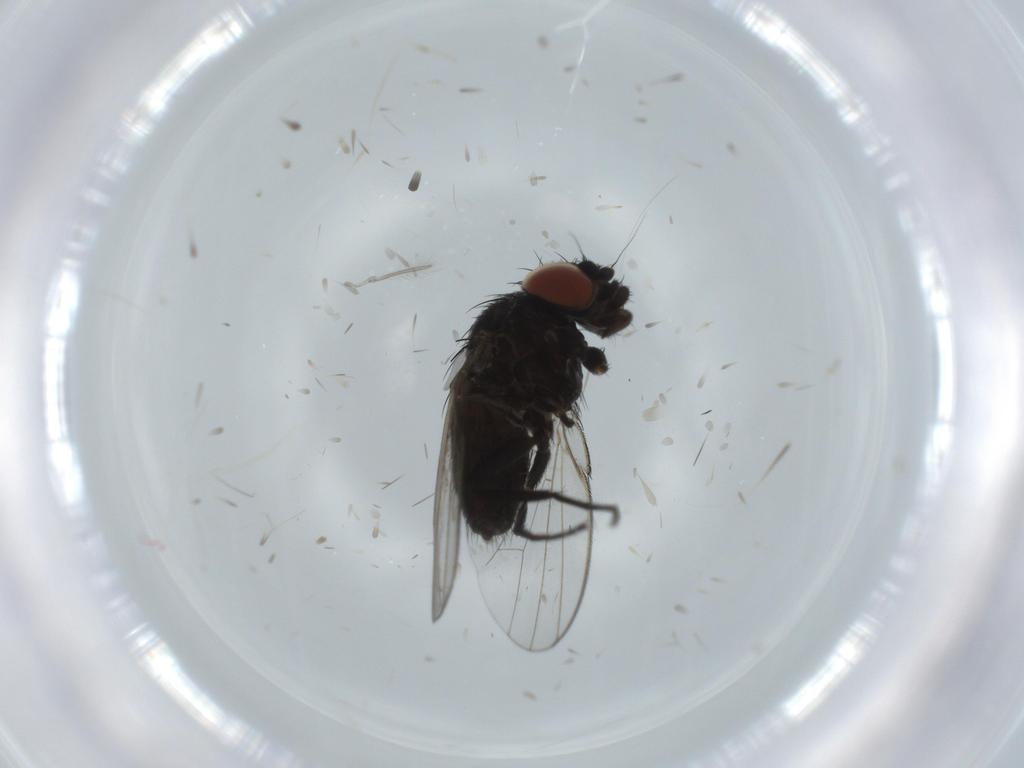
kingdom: Animalia
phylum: Arthropoda
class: Insecta
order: Diptera
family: Milichiidae
